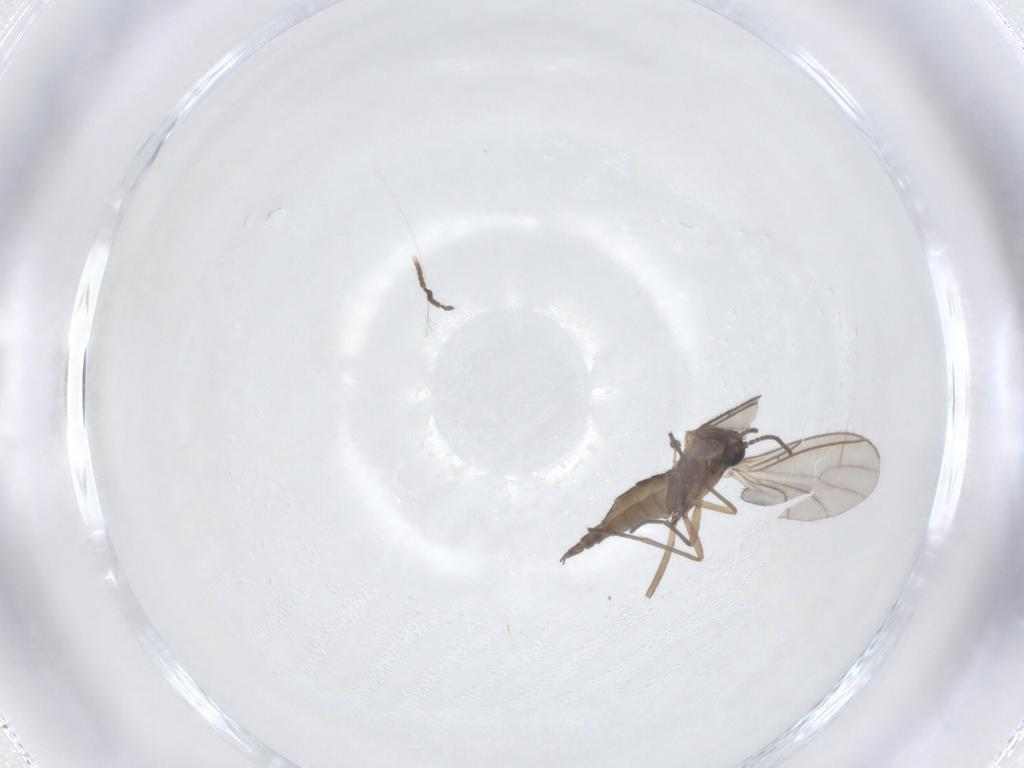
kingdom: Animalia
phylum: Arthropoda
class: Insecta
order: Diptera
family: Sciaridae
